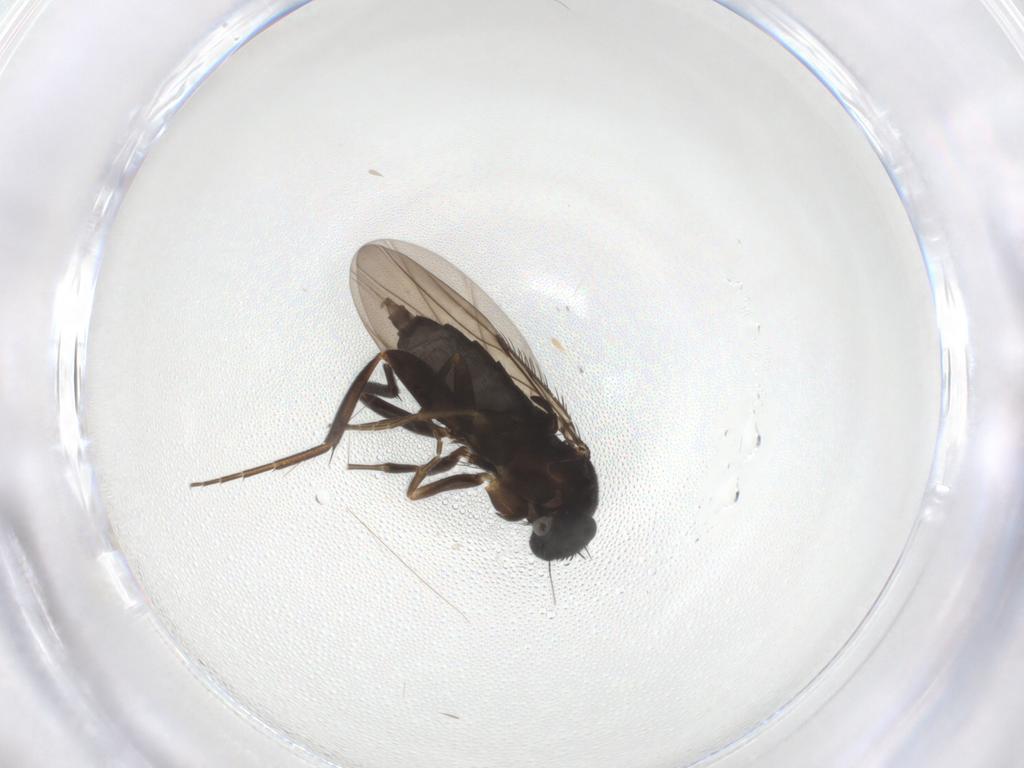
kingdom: Animalia
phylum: Arthropoda
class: Insecta
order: Diptera
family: Phoridae
